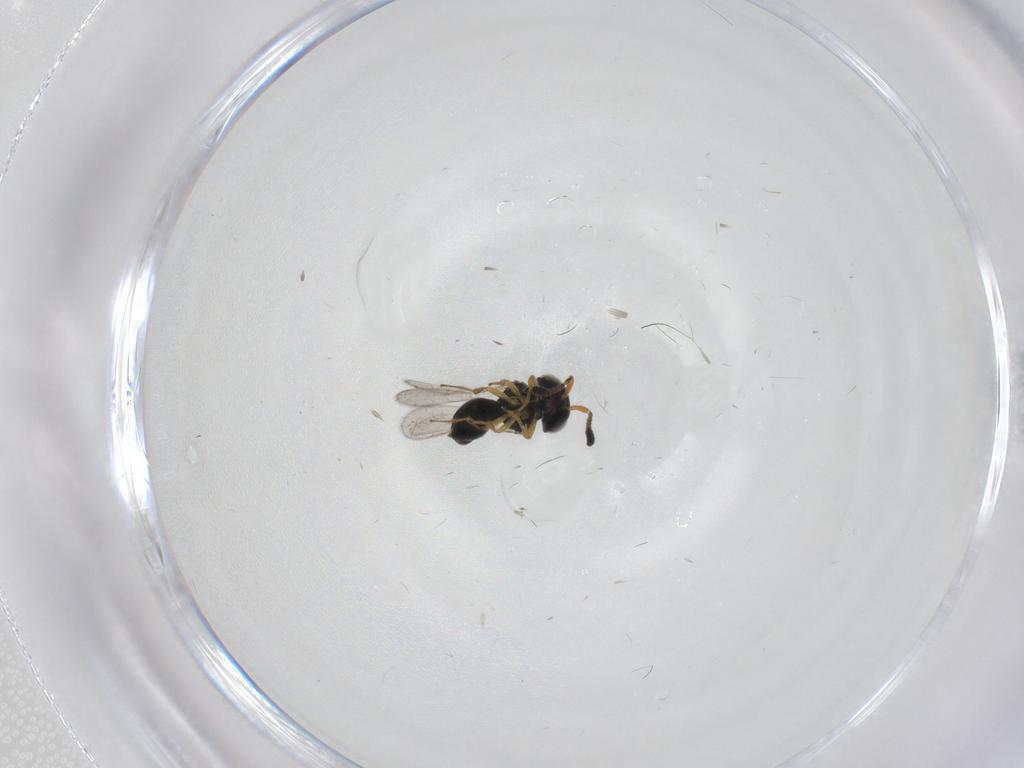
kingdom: Animalia
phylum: Arthropoda
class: Insecta
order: Hymenoptera
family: Scelionidae
